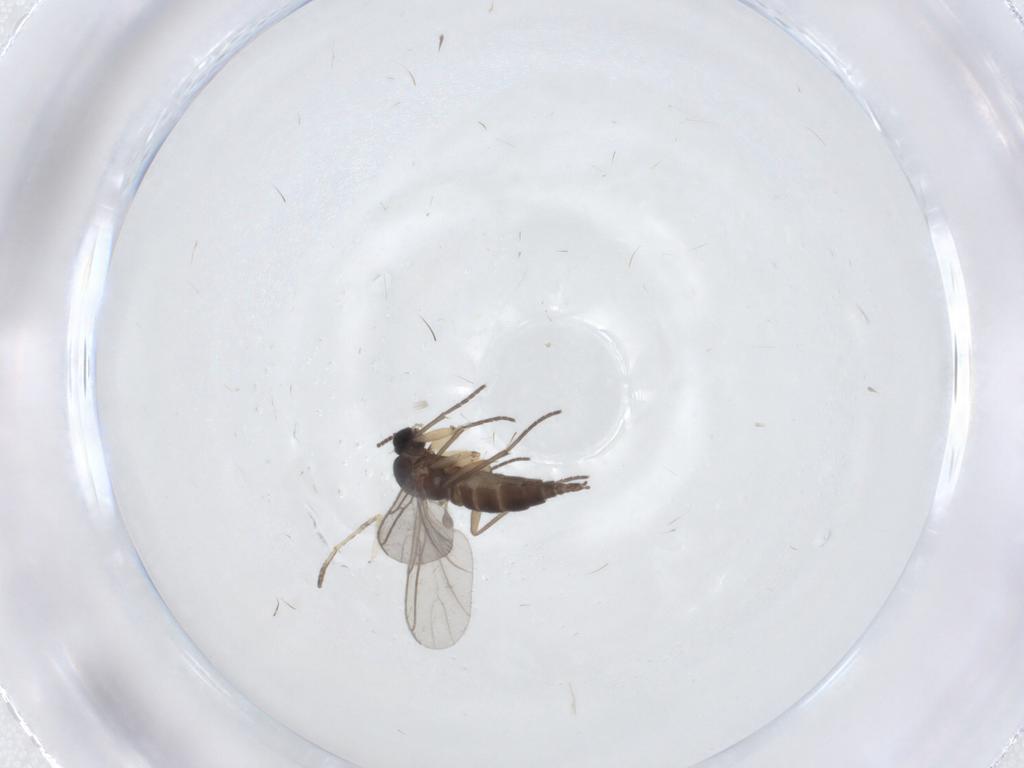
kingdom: Animalia
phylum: Arthropoda
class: Insecta
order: Diptera
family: Sciaridae
